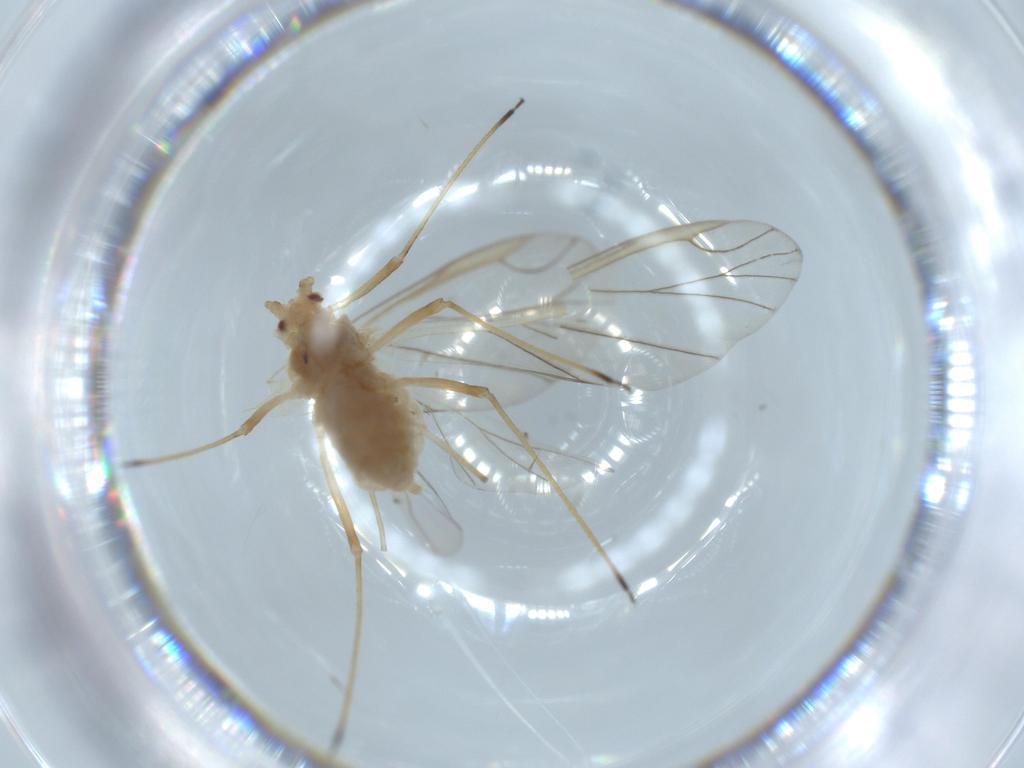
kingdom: Animalia
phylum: Arthropoda
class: Insecta
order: Hemiptera
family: Aphididae
